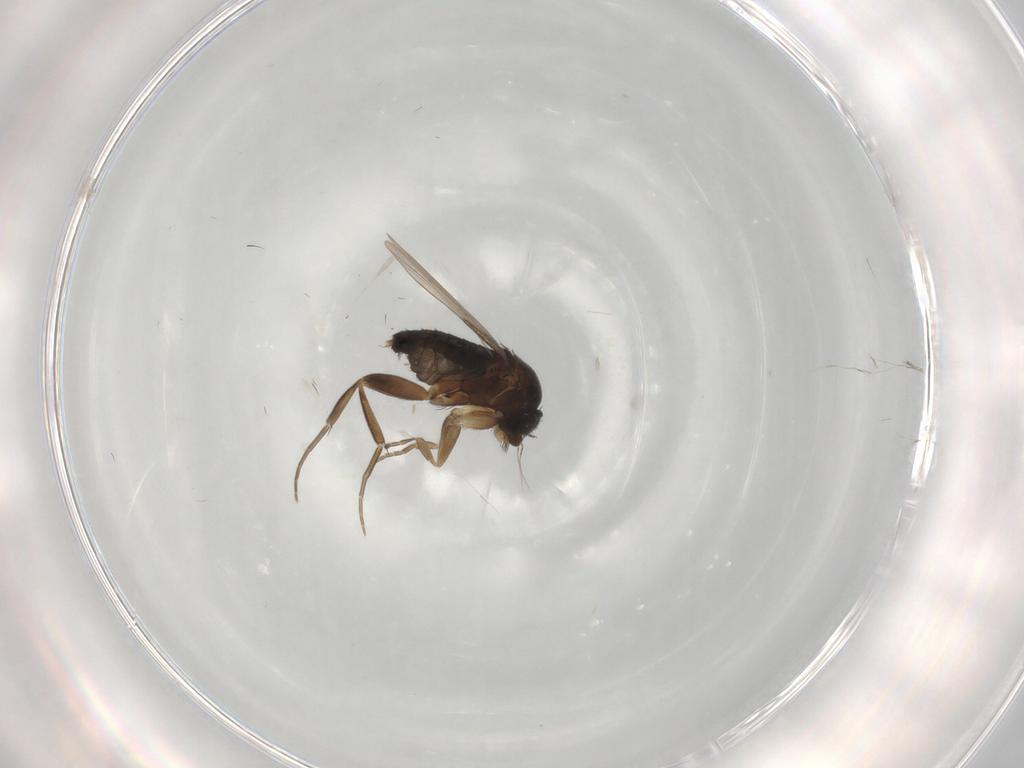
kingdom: Animalia
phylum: Arthropoda
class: Insecta
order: Diptera
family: Phoridae
